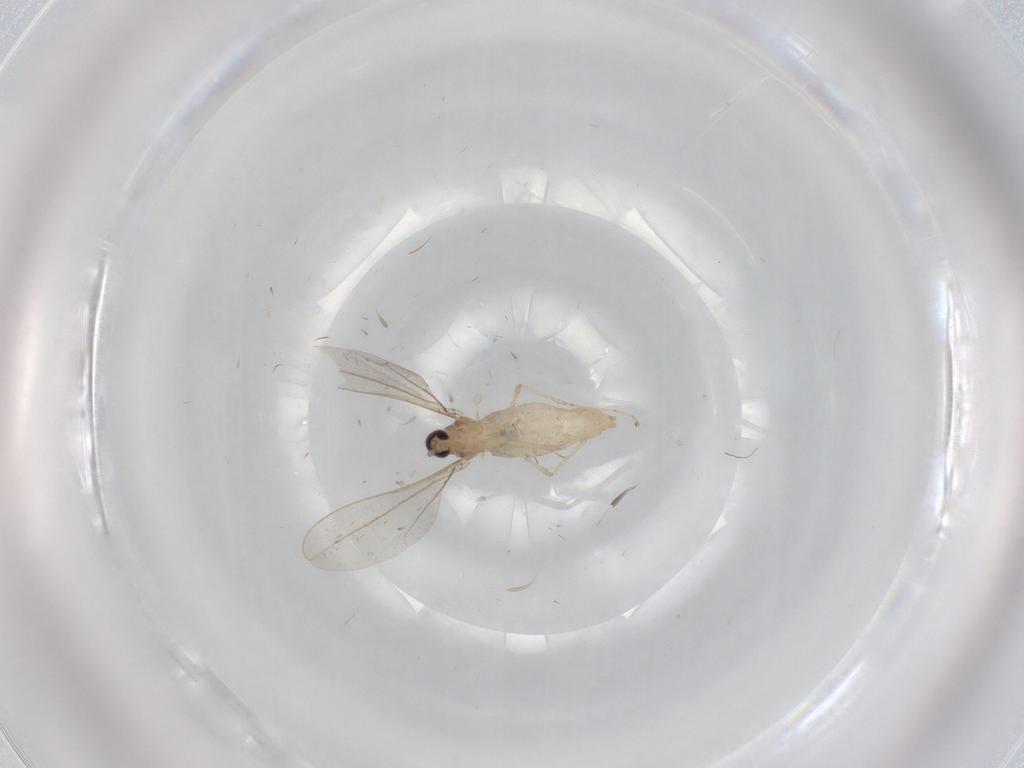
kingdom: Animalia
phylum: Arthropoda
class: Insecta
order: Diptera
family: Cecidomyiidae
